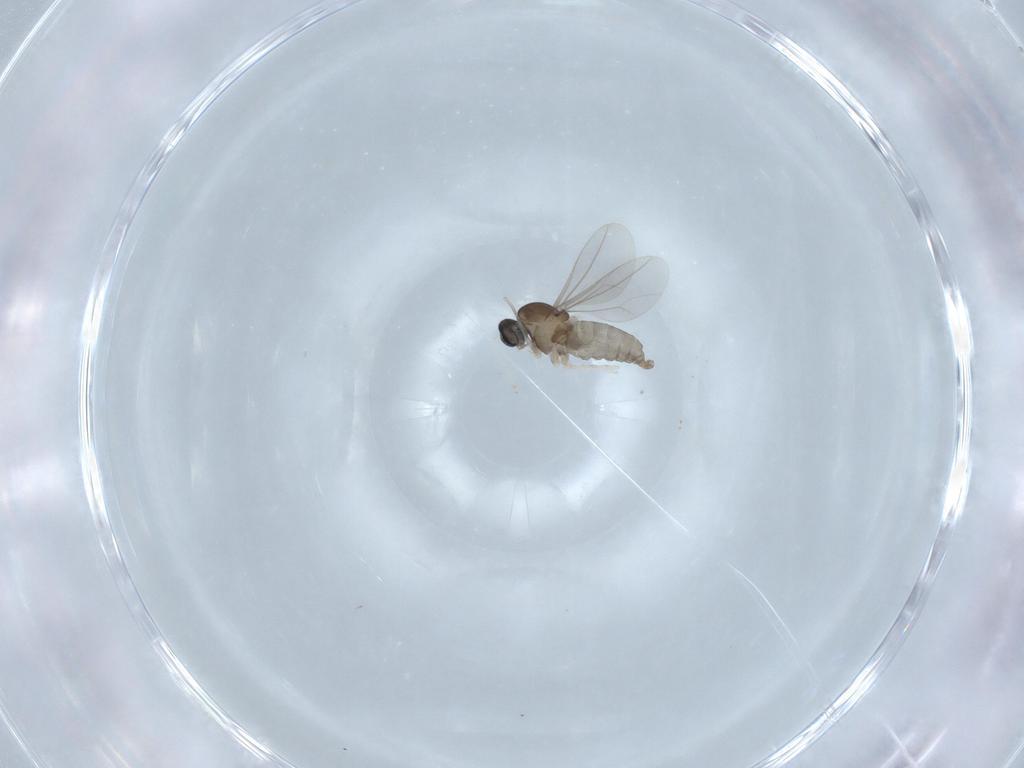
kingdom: Animalia
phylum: Arthropoda
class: Insecta
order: Diptera
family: Cecidomyiidae
